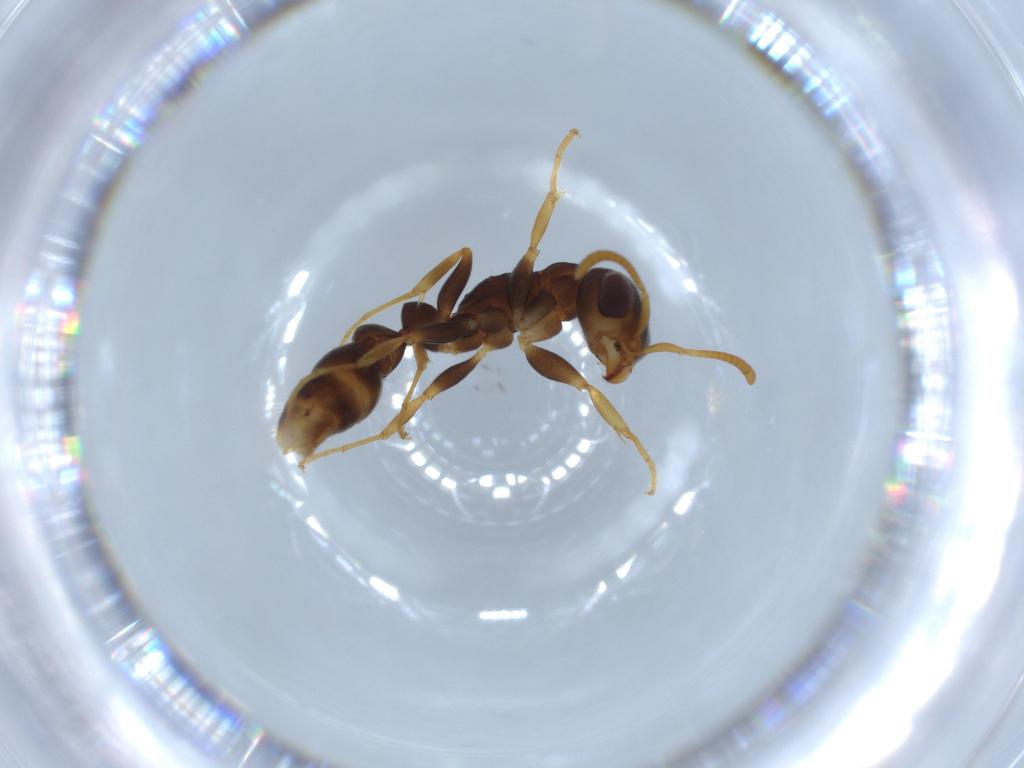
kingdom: Animalia
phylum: Arthropoda
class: Insecta
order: Hymenoptera
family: Formicidae
